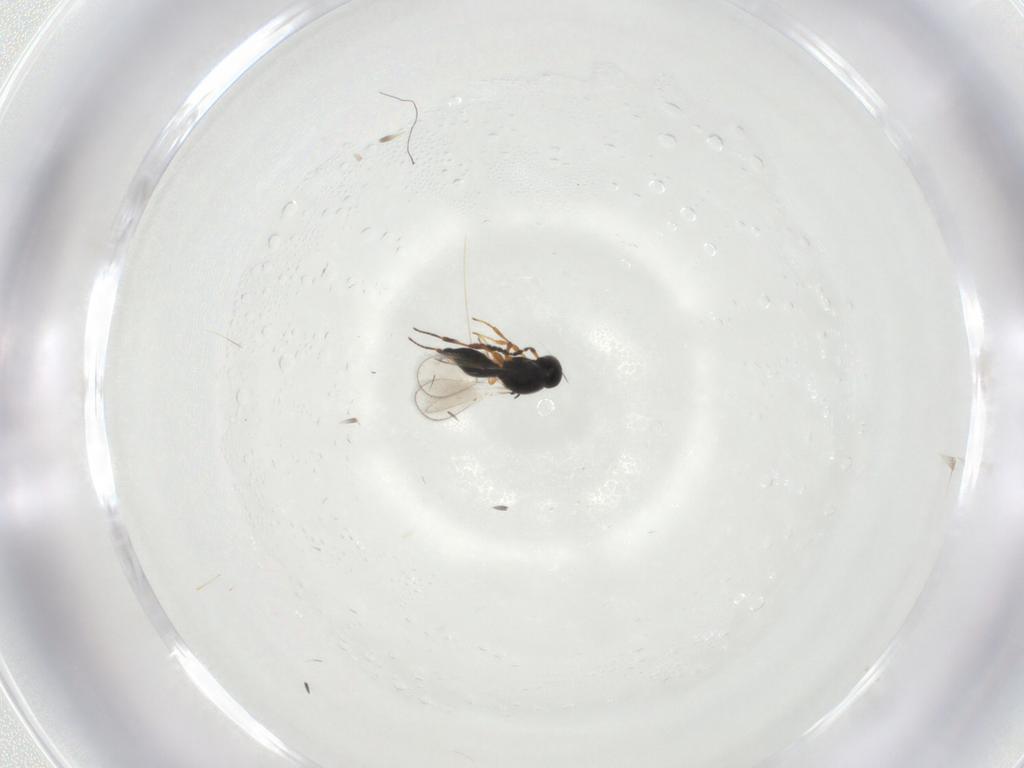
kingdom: Animalia
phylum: Arthropoda
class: Insecta
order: Hymenoptera
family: Platygastridae
